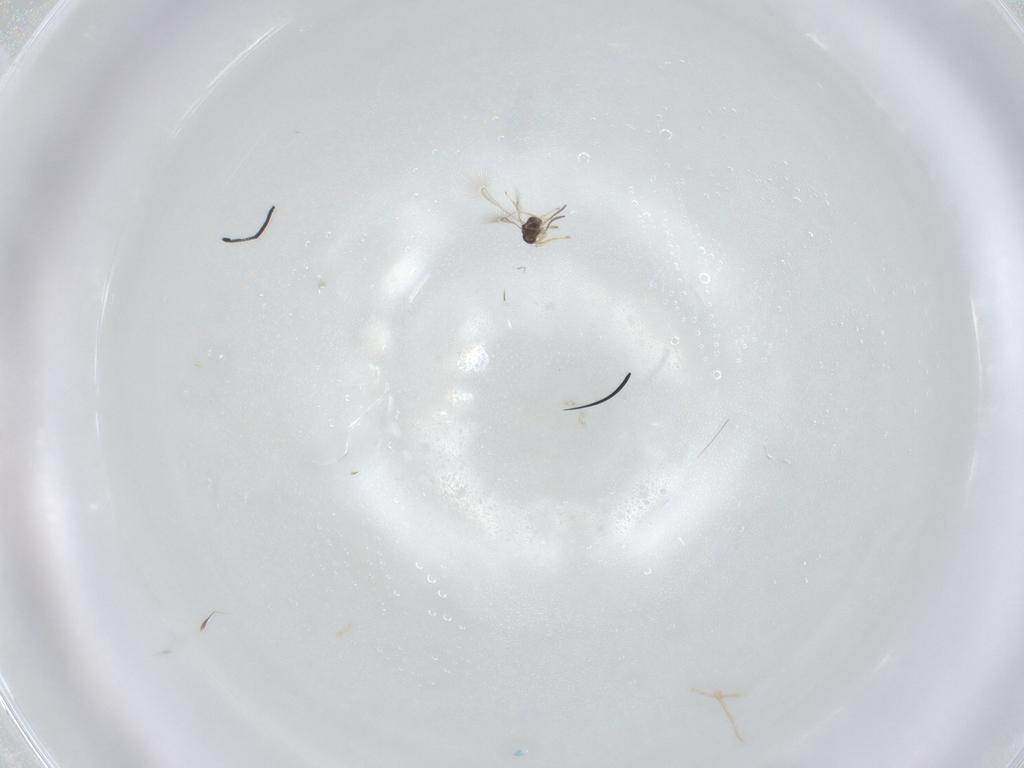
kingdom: Animalia
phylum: Arthropoda
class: Insecta
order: Hymenoptera
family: Mymaridae
